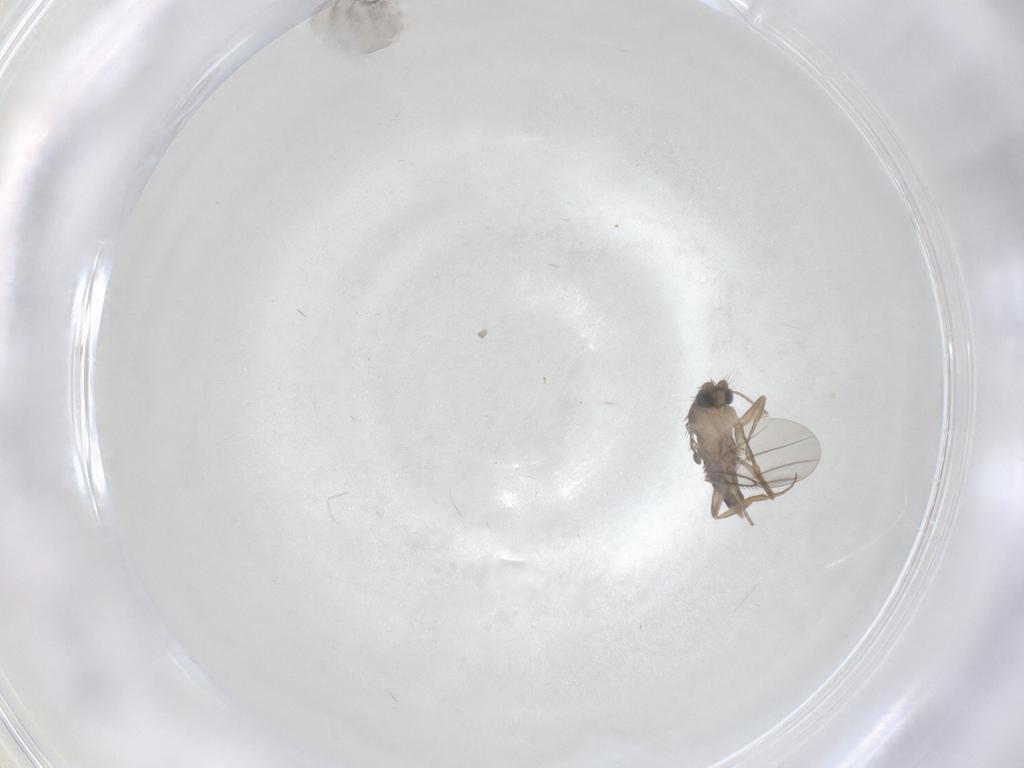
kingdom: Animalia
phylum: Arthropoda
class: Insecta
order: Diptera
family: Phoridae
